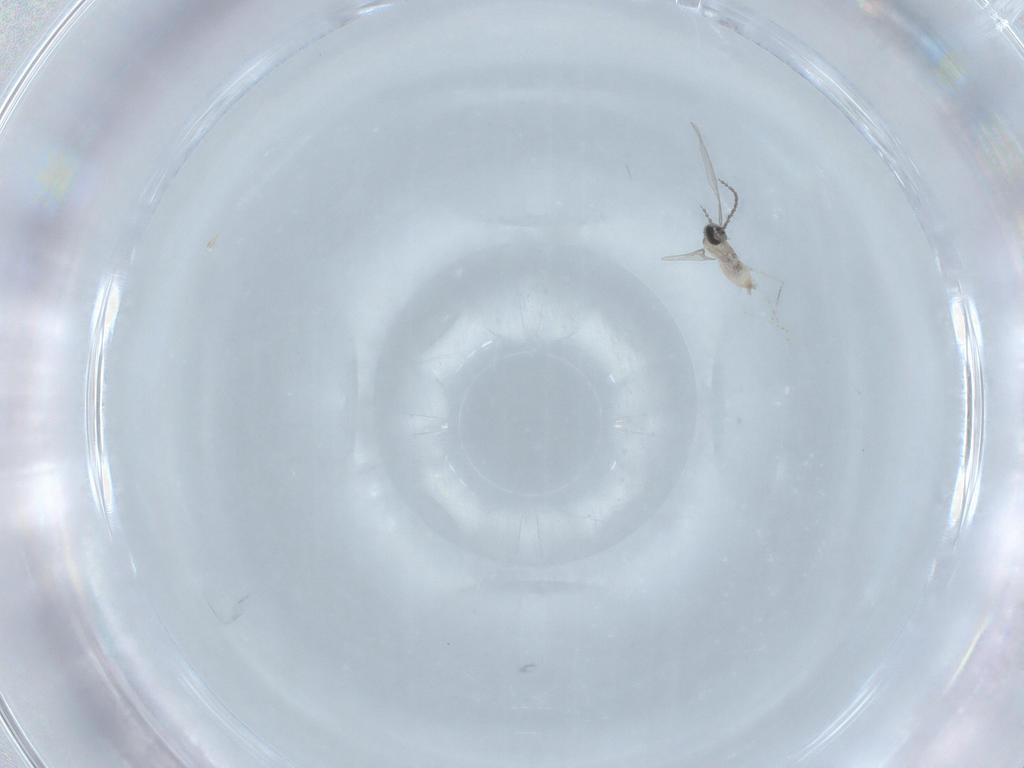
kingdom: Animalia
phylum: Arthropoda
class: Insecta
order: Diptera
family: Cecidomyiidae
